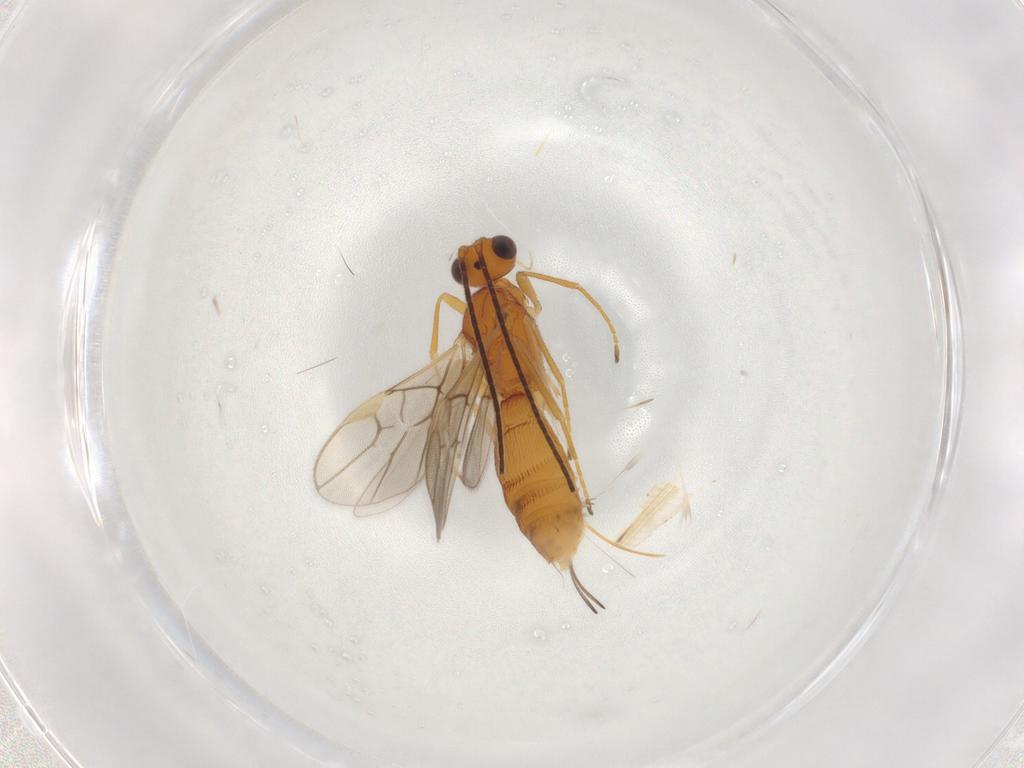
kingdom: Animalia
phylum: Arthropoda
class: Insecta
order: Hymenoptera
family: Braconidae
